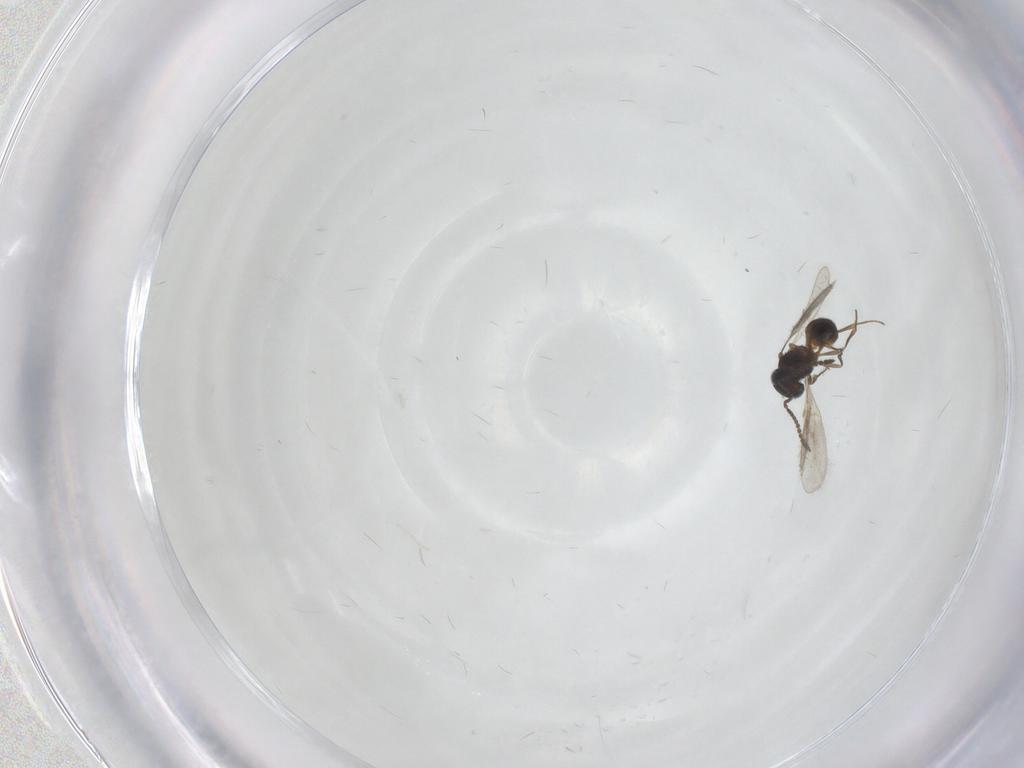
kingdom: Animalia
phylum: Arthropoda
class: Insecta
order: Hymenoptera
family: Scelionidae
